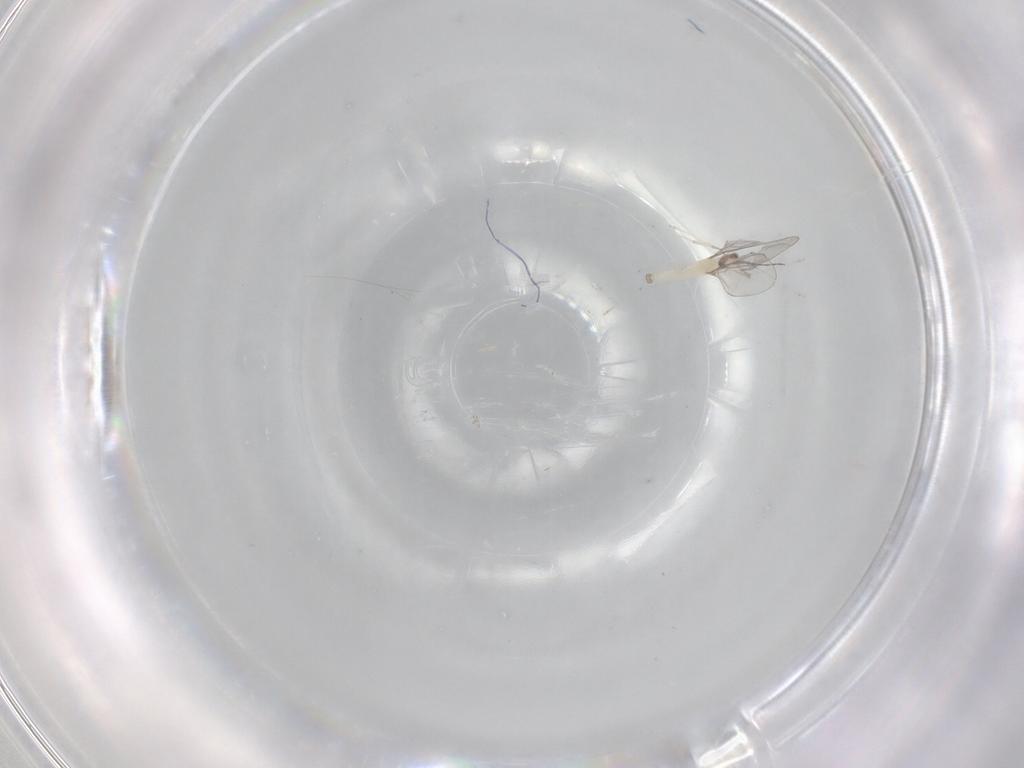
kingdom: Animalia
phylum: Arthropoda
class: Insecta
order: Diptera
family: Cecidomyiidae
